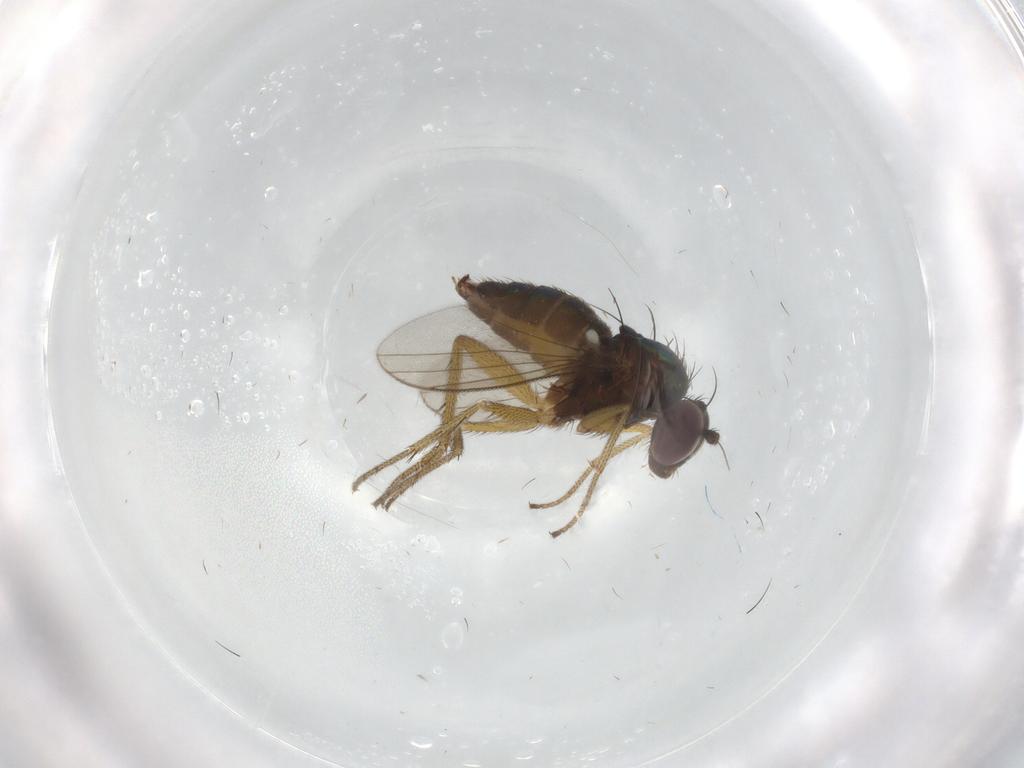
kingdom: Animalia
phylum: Arthropoda
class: Insecta
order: Diptera
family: Dolichopodidae
